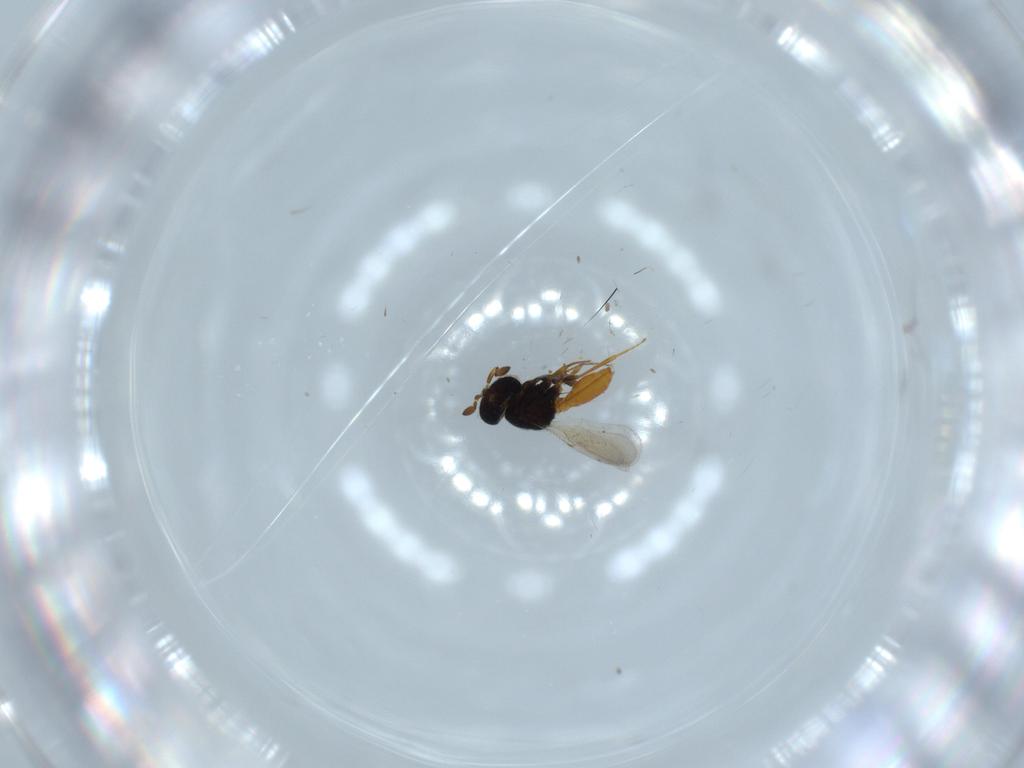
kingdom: Animalia
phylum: Arthropoda
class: Insecta
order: Hymenoptera
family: Scelionidae
